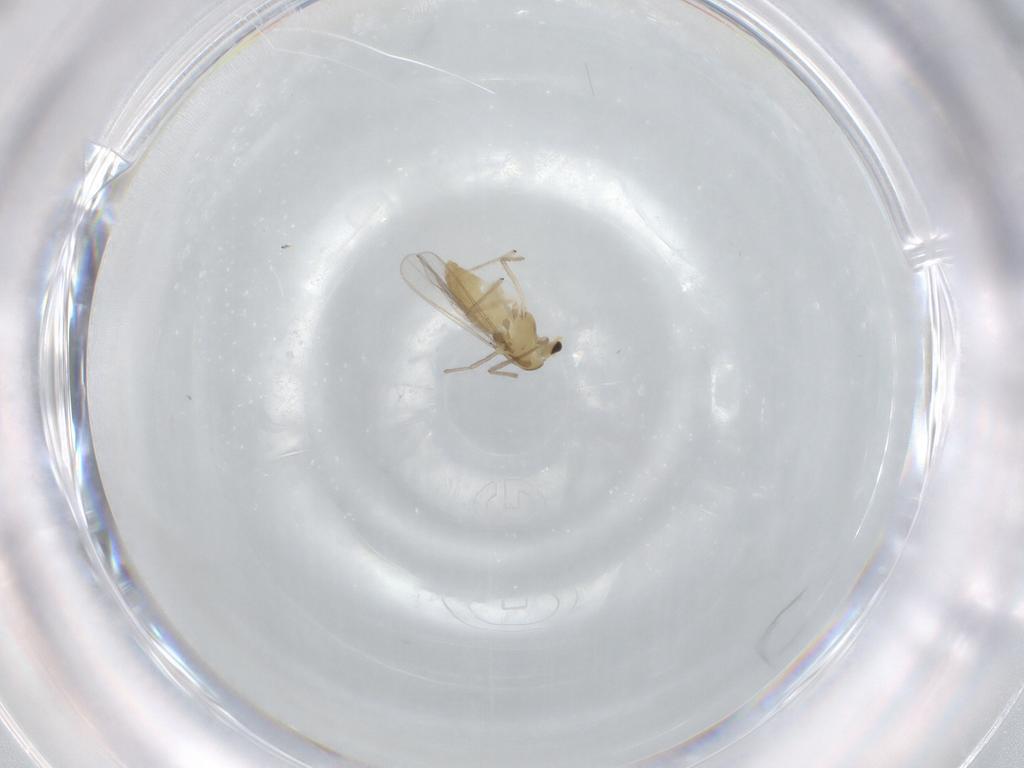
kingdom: Animalia
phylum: Arthropoda
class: Insecta
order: Diptera
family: Chironomidae
